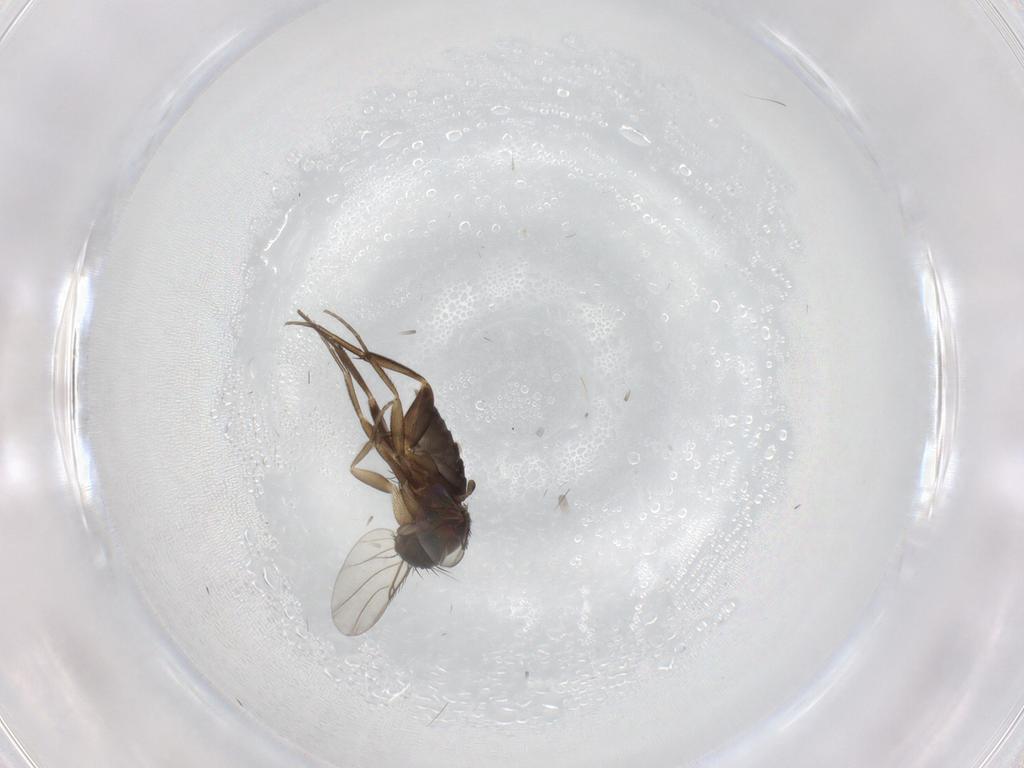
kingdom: Animalia
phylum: Arthropoda
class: Insecta
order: Diptera
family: Phoridae
